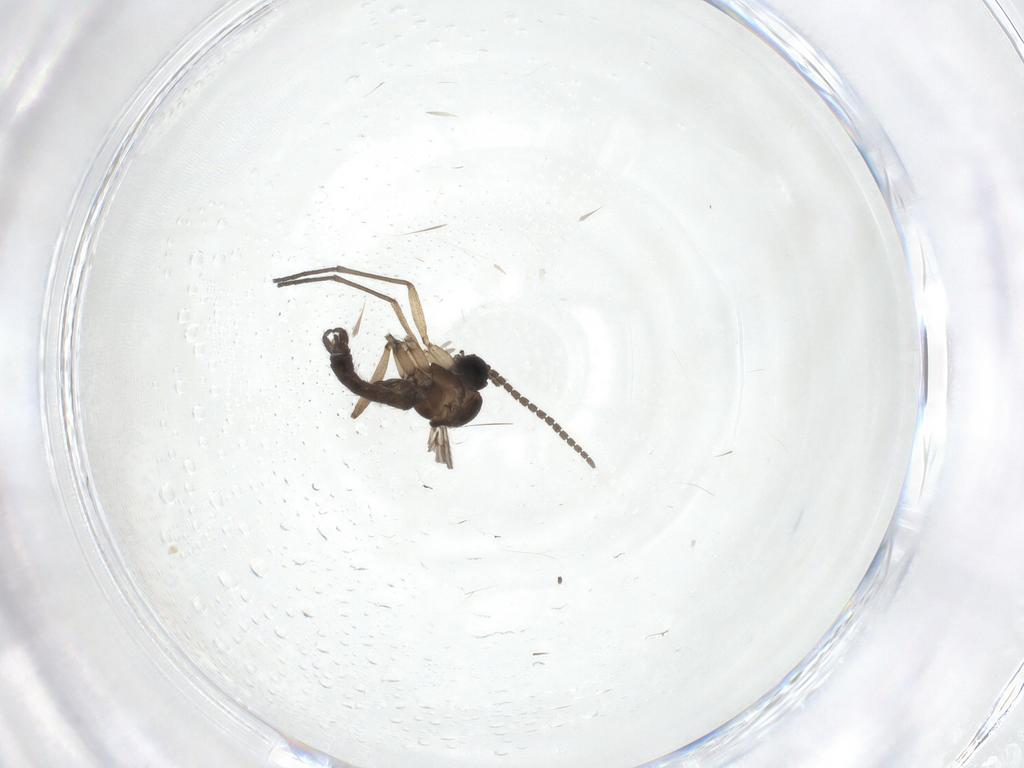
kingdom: Animalia
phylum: Arthropoda
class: Insecta
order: Diptera
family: Sciaridae
